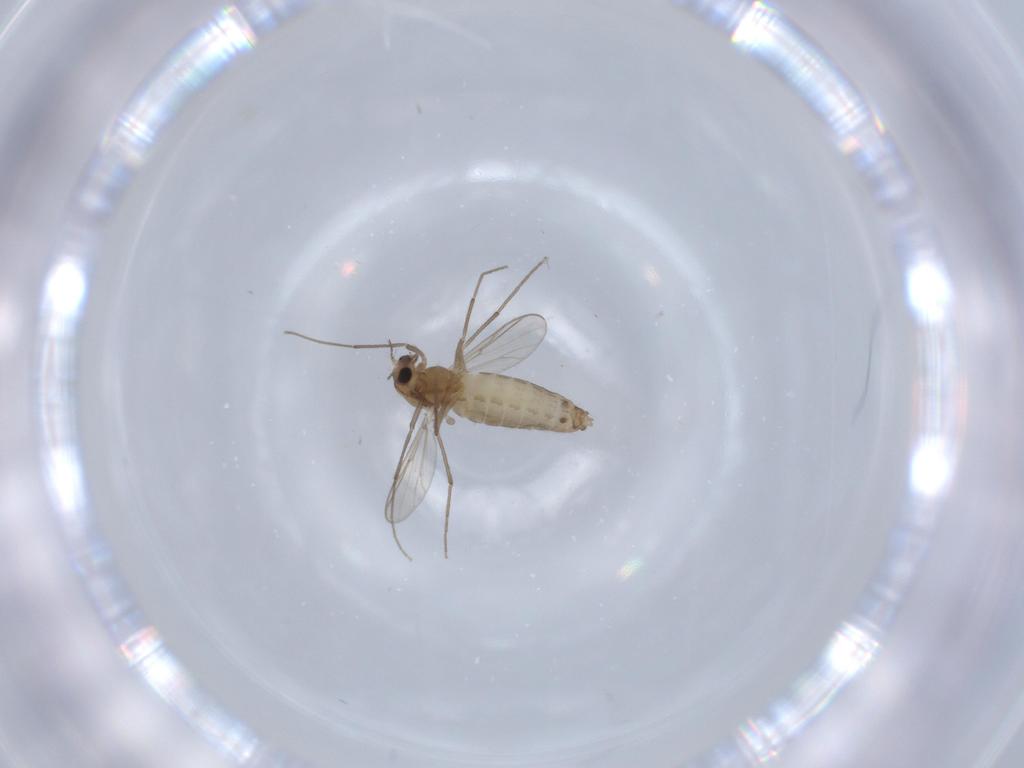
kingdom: Animalia
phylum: Arthropoda
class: Insecta
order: Diptera
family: Chironomidae
